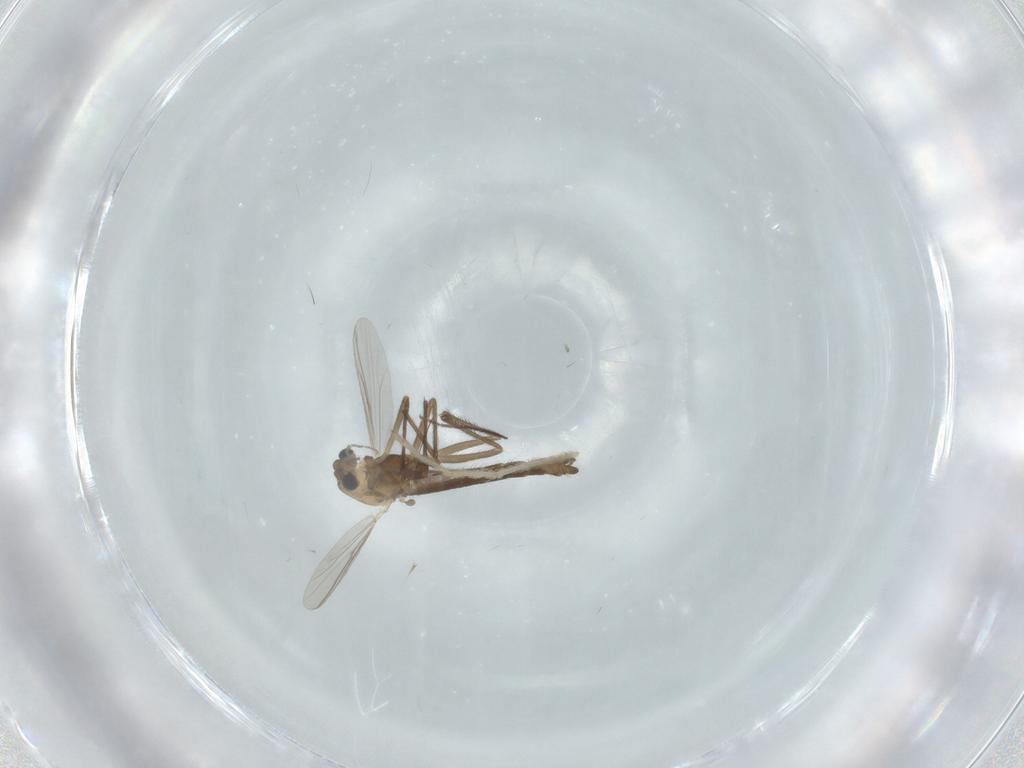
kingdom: Animalia
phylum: Arthropoda
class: Insecta
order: Diptera
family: Chironomidae
